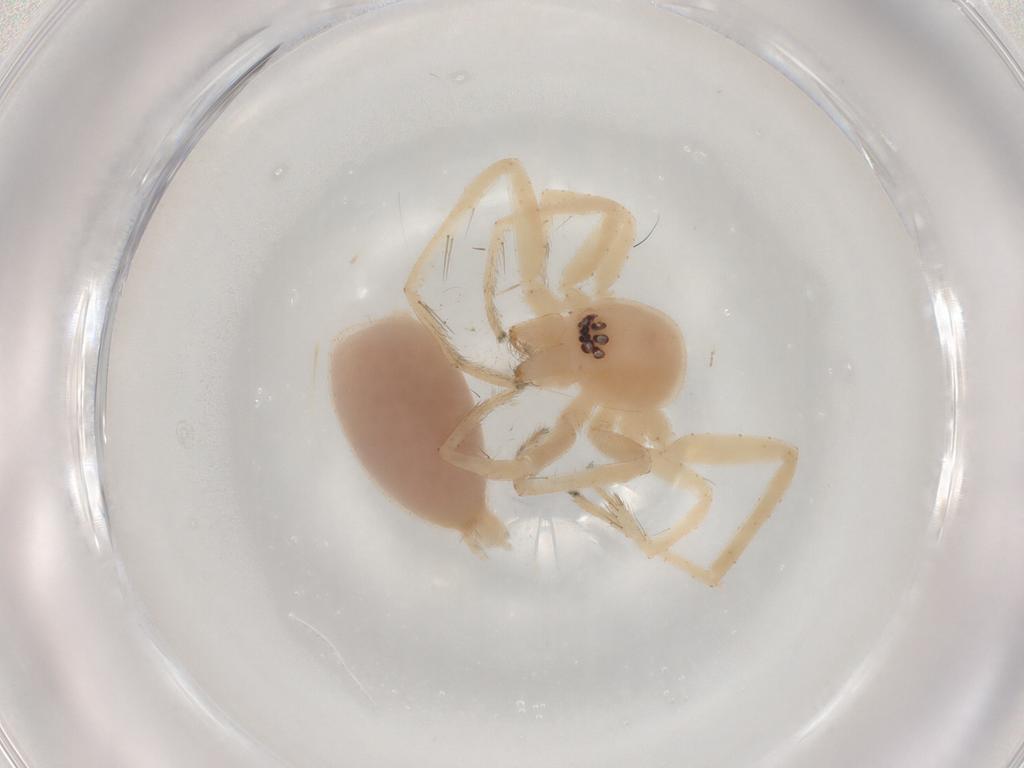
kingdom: Animalia
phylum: Arthropoda
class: Arachnida
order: Araneae
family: Anyphaenidae
